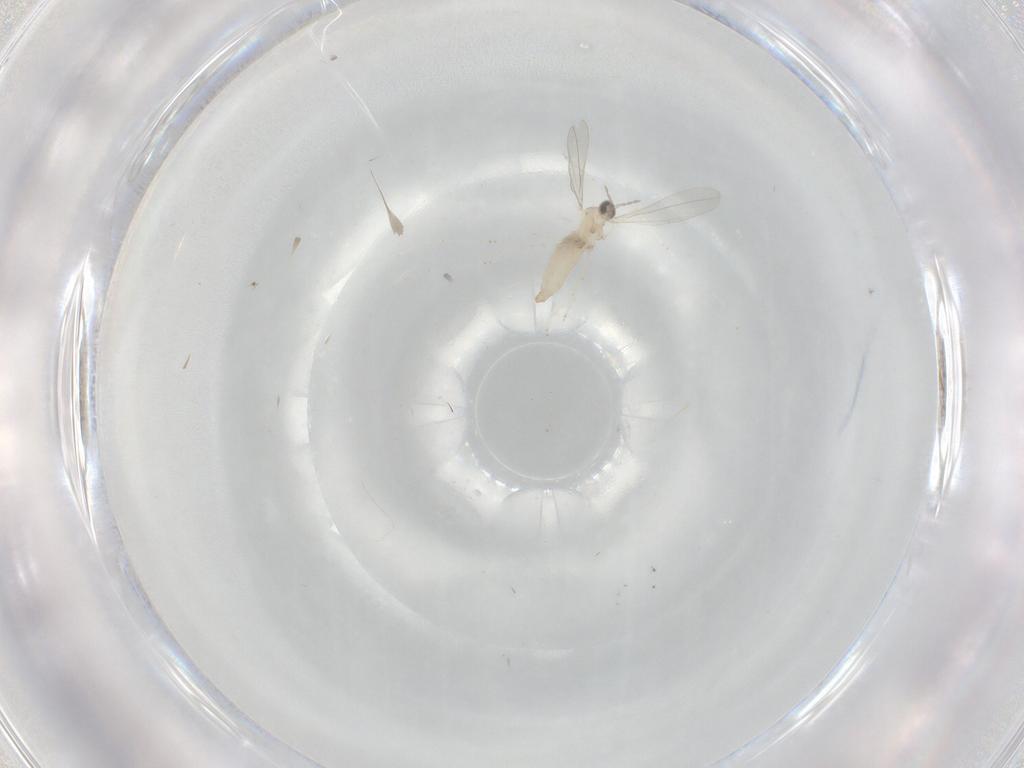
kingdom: Animalia
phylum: Arthropoda
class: Insecta
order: Diptera
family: Cecidomyiidae
